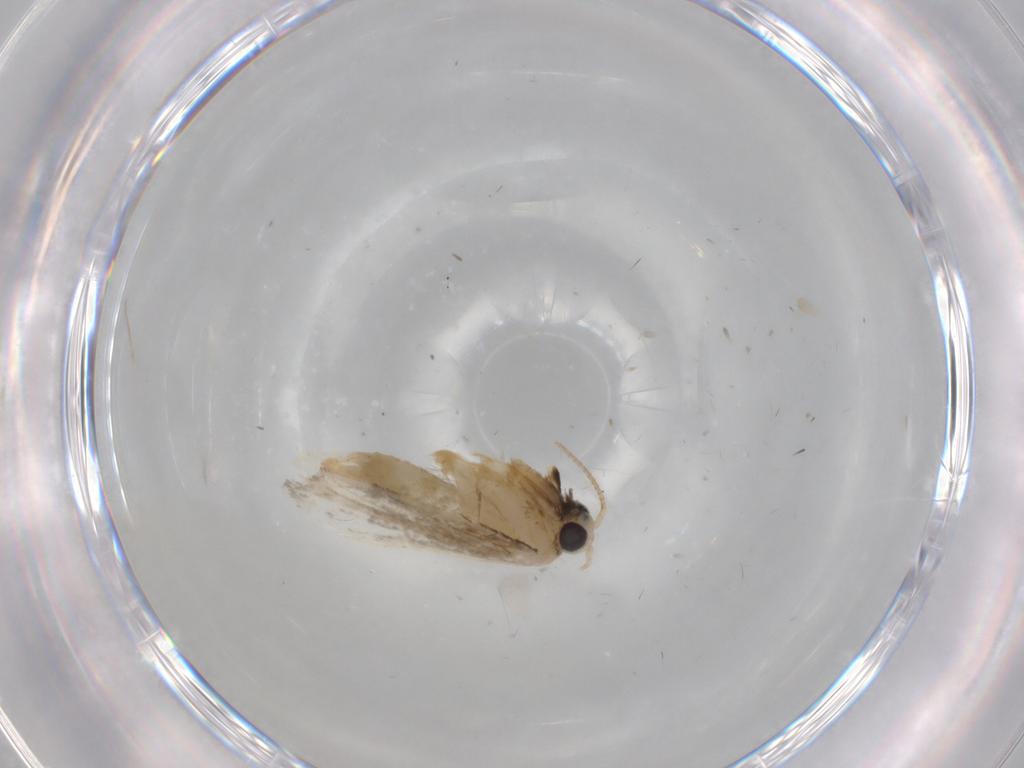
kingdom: Animalia
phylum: Arthropoda
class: Insecta
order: Lepidoptera
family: Psychidae
